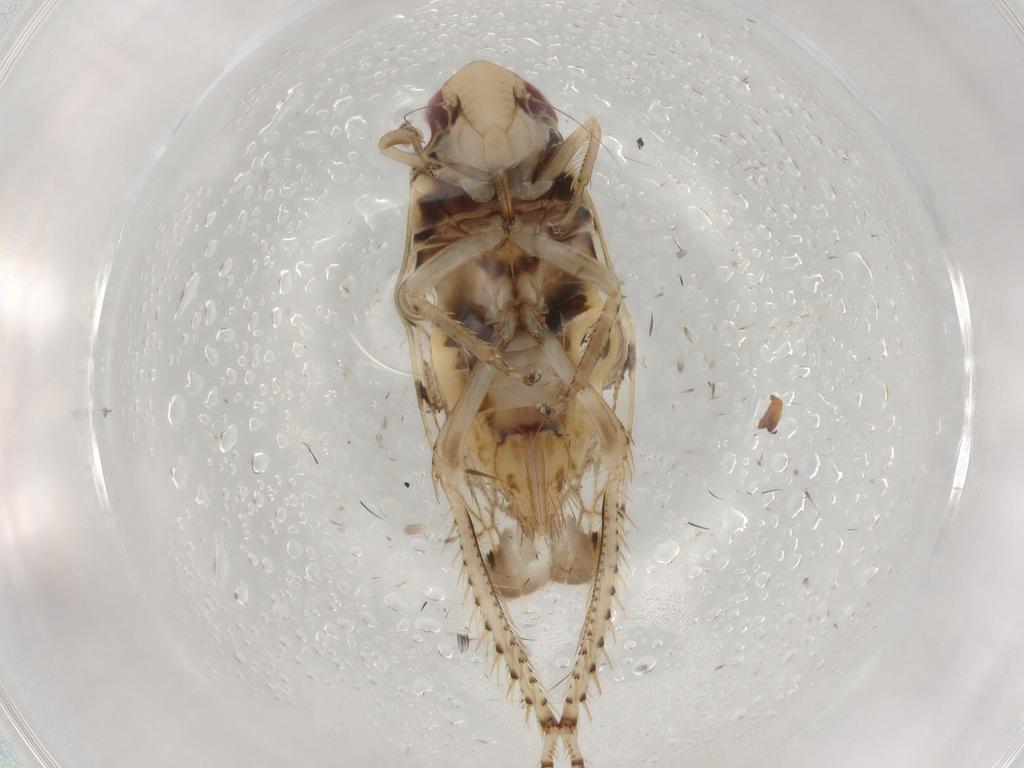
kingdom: Animalia
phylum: Arthropoda
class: Insecta
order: Hemiptera
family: Cicadellidae
